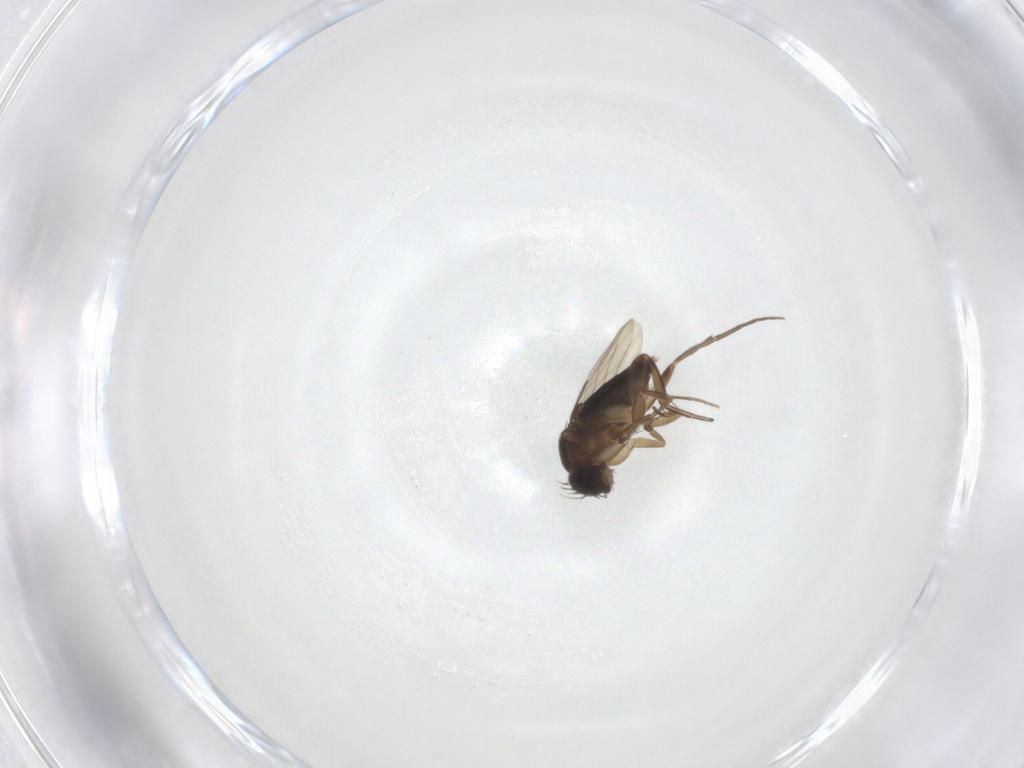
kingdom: Animalia
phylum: Arthropoda
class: Insecta
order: Diptera
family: Phoridae
